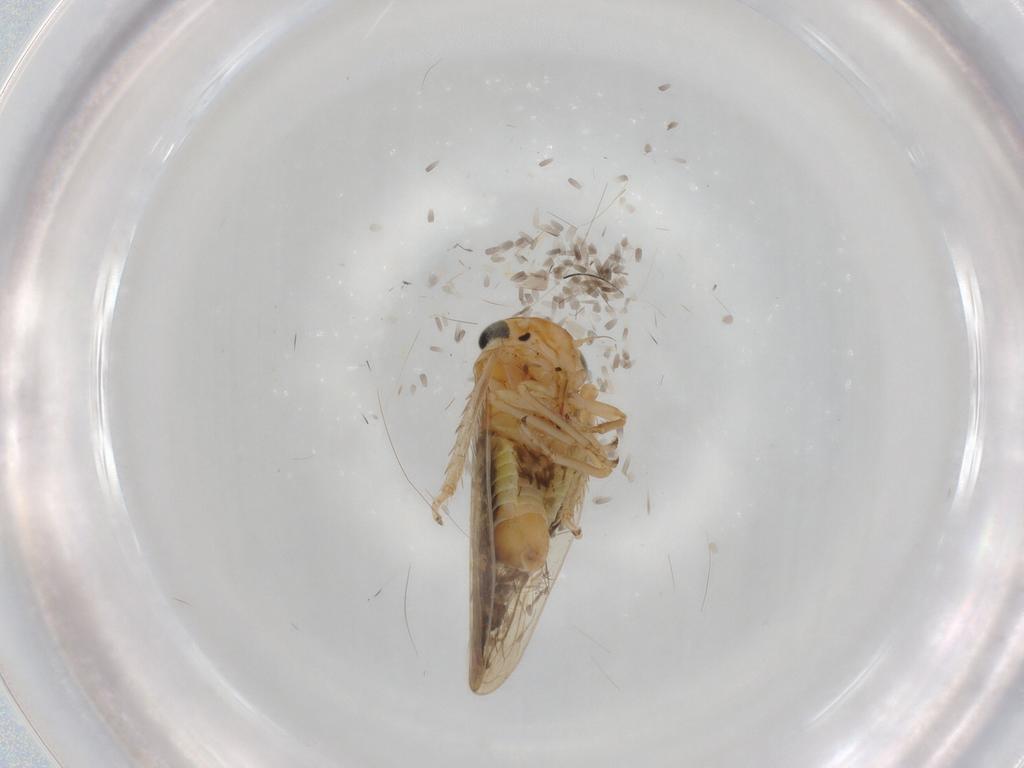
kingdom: Animalia
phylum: Arthropoda
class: Insecta
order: Hemiptera
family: Cicadellidae
